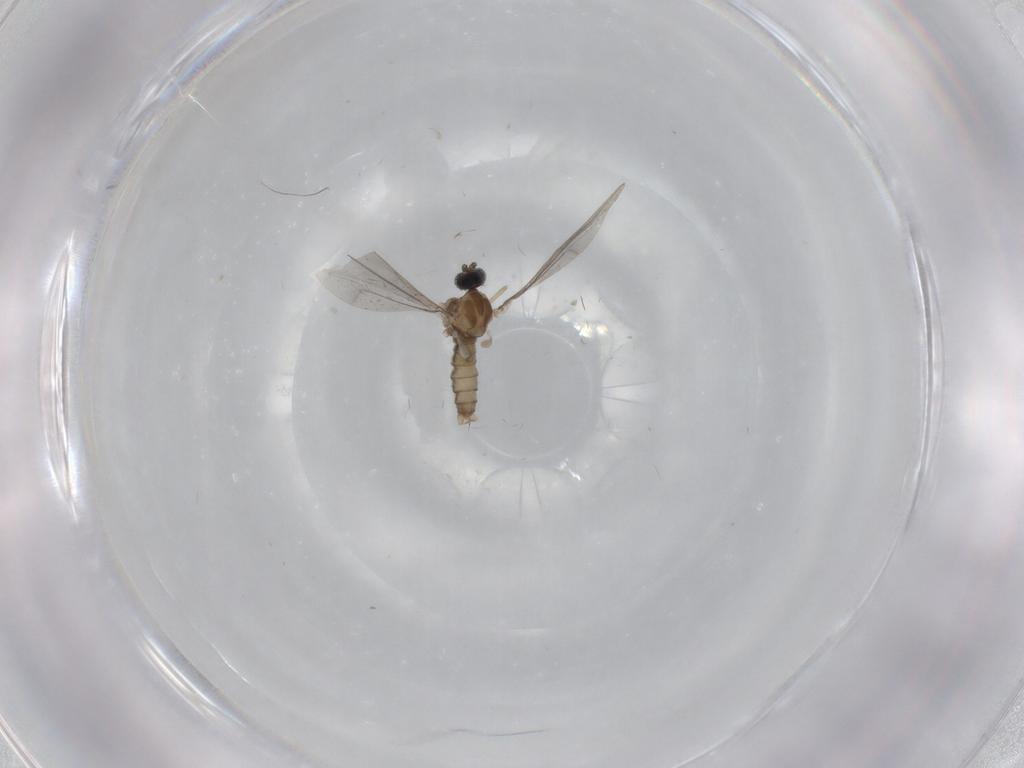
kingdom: Animalia
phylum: Arthropoda
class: Insecta
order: Diptera
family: Cecidomyiidae
